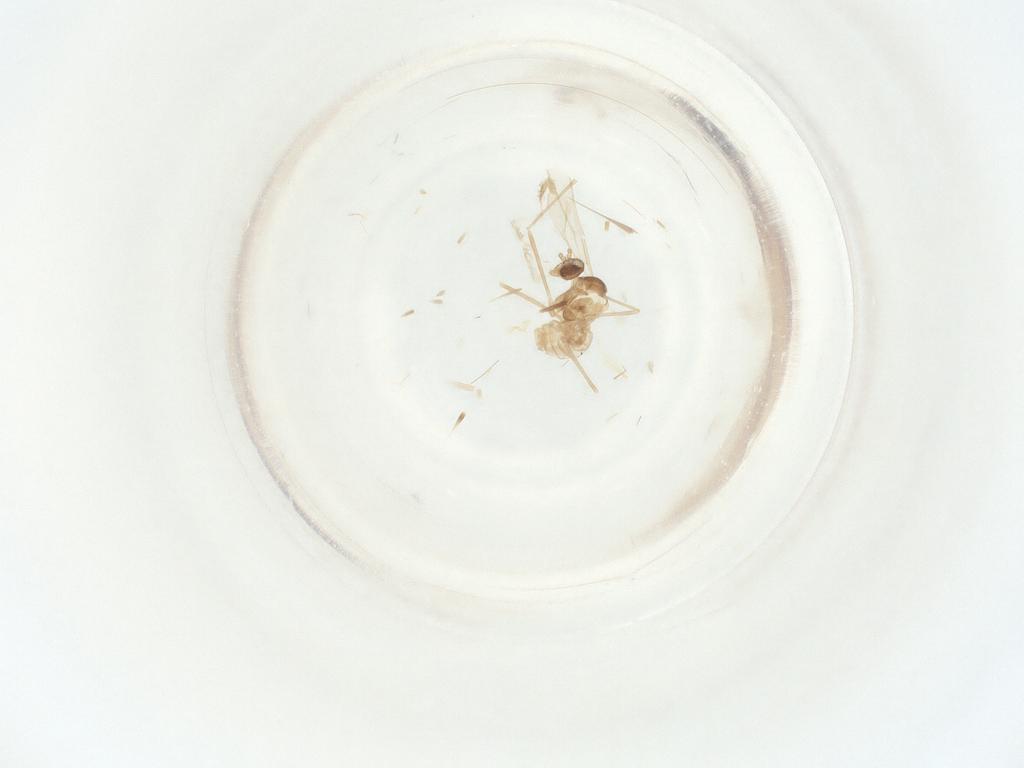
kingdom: Animalia
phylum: Arthropoda
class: Insecta
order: Diptera
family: Cecidomyiidae
